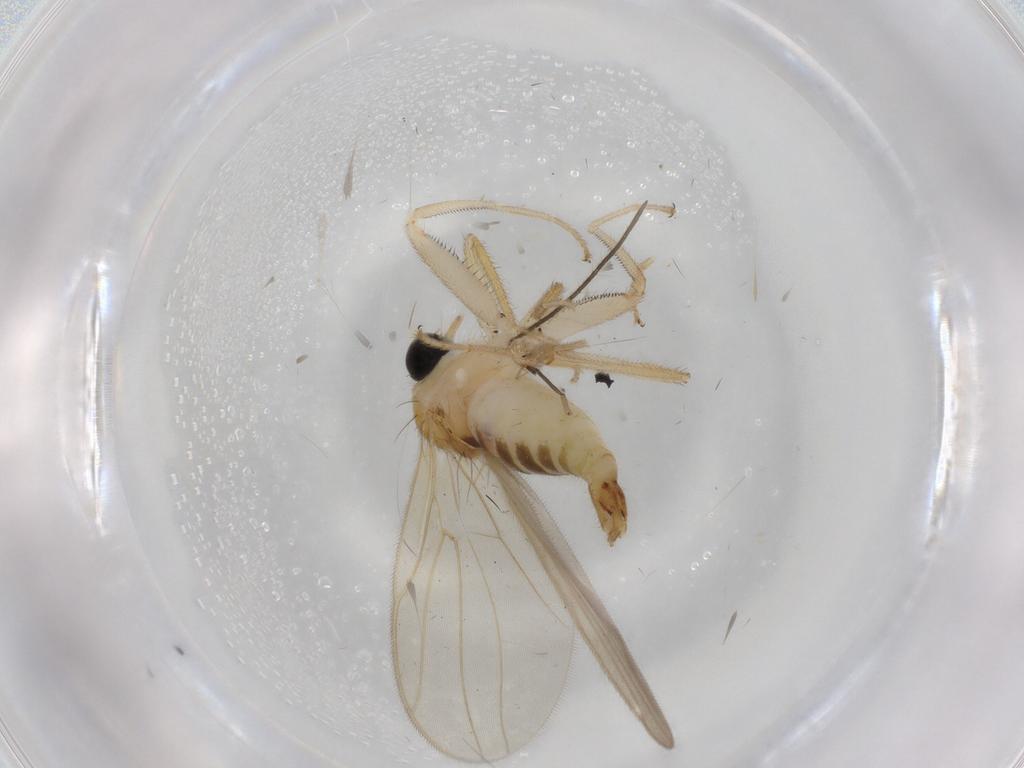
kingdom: Animalia
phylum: Arthropoda
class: Insecta
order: Diptera
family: Hybotidae
